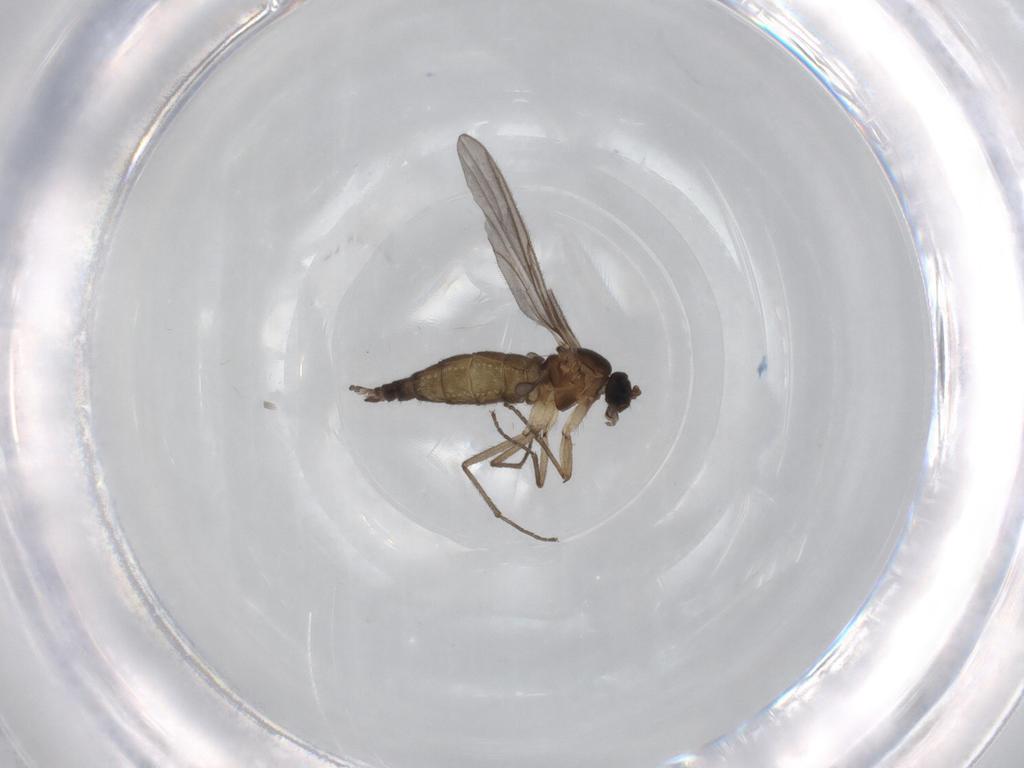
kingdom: Animalia
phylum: Arthropoda
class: Insecta
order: Diptera
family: Sciaridae
